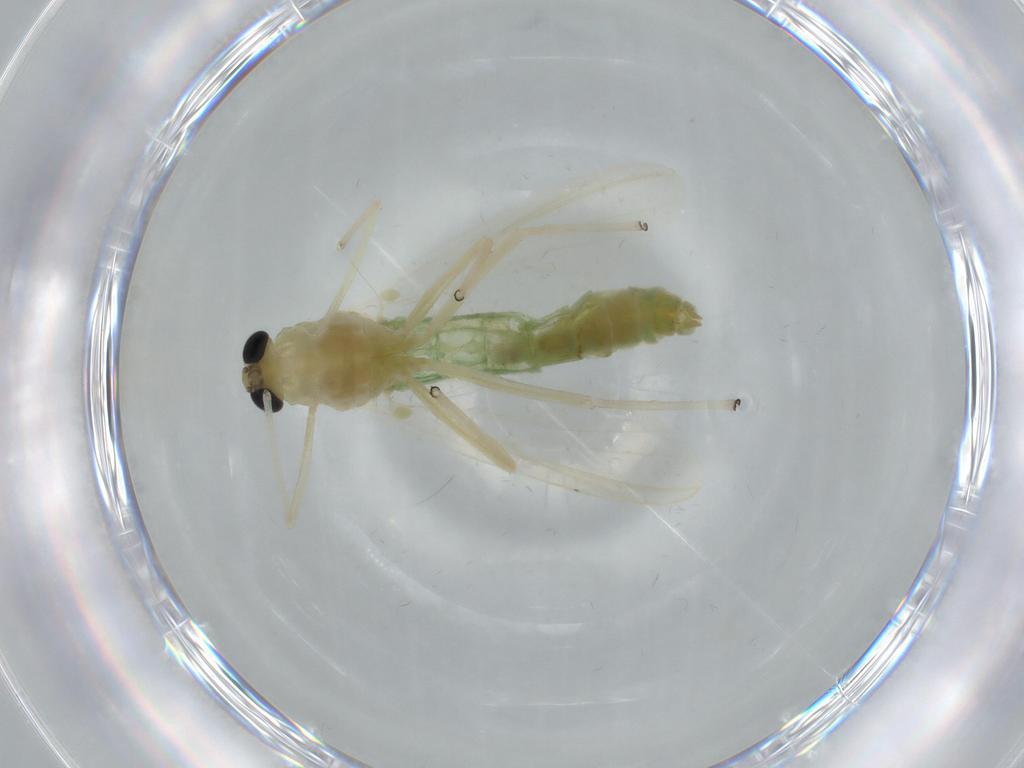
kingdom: Animalia
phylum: Arthropoda
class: Insecta
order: Diptera
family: Chironomidae
